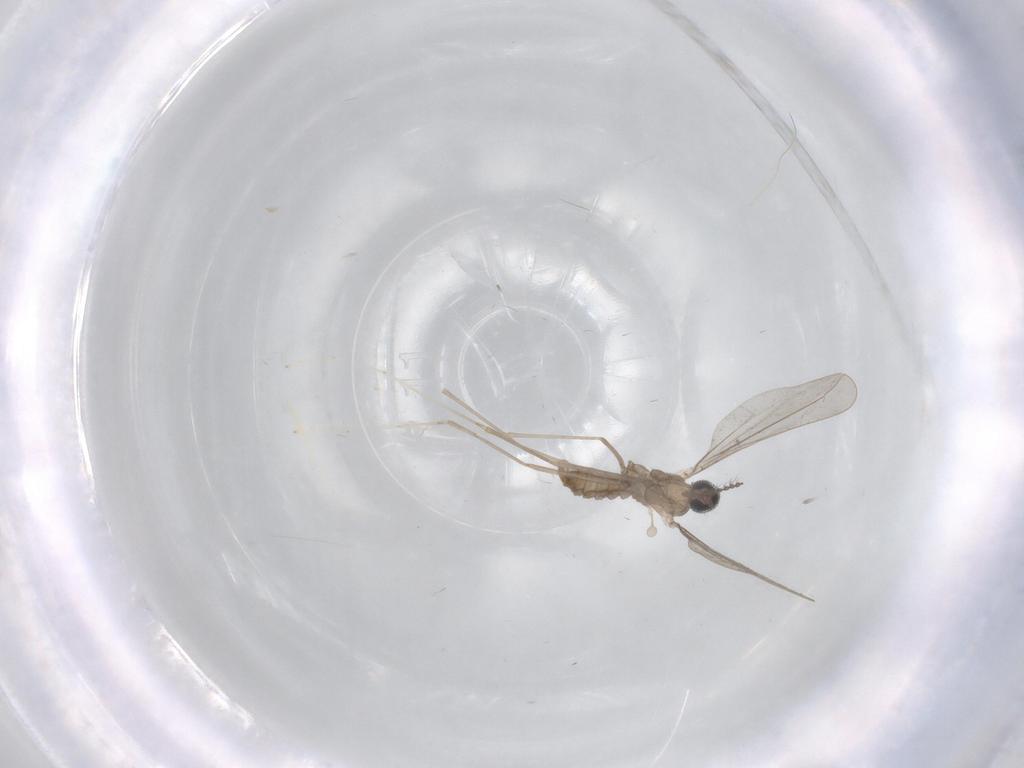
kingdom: Animalia
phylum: Arthropoda
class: Insecta
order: Diptera
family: Cecidomyiidae
